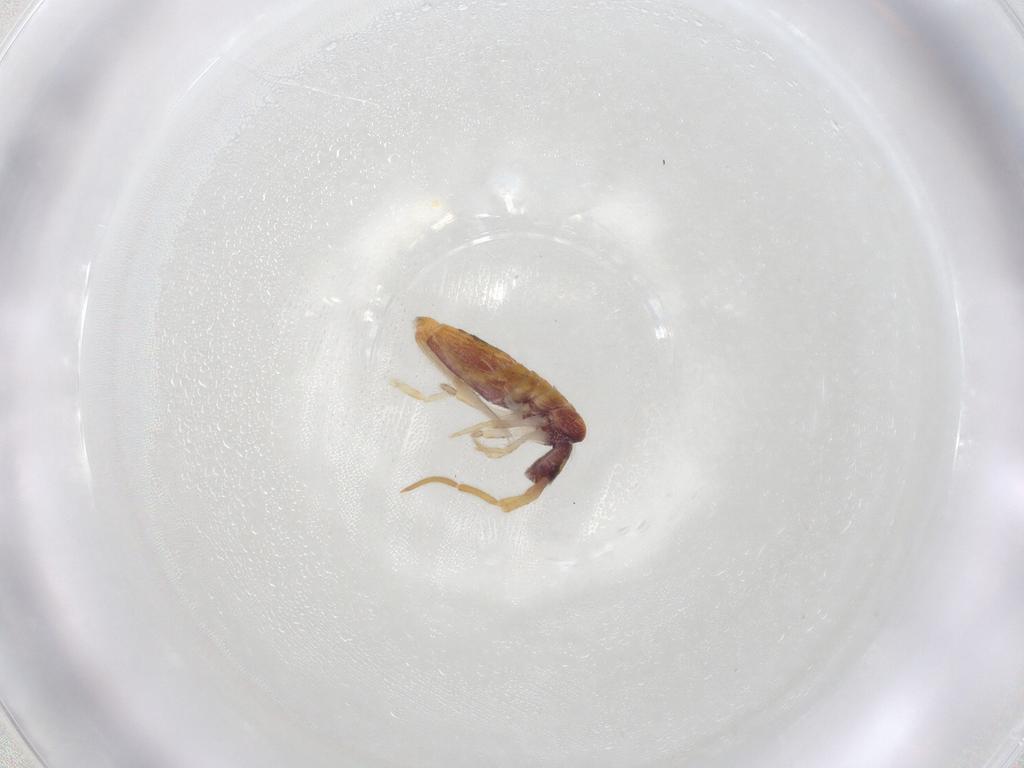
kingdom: Animalia
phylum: Arthropoda
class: Collembola
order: Entomobryomorpha
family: Entomobryidae
